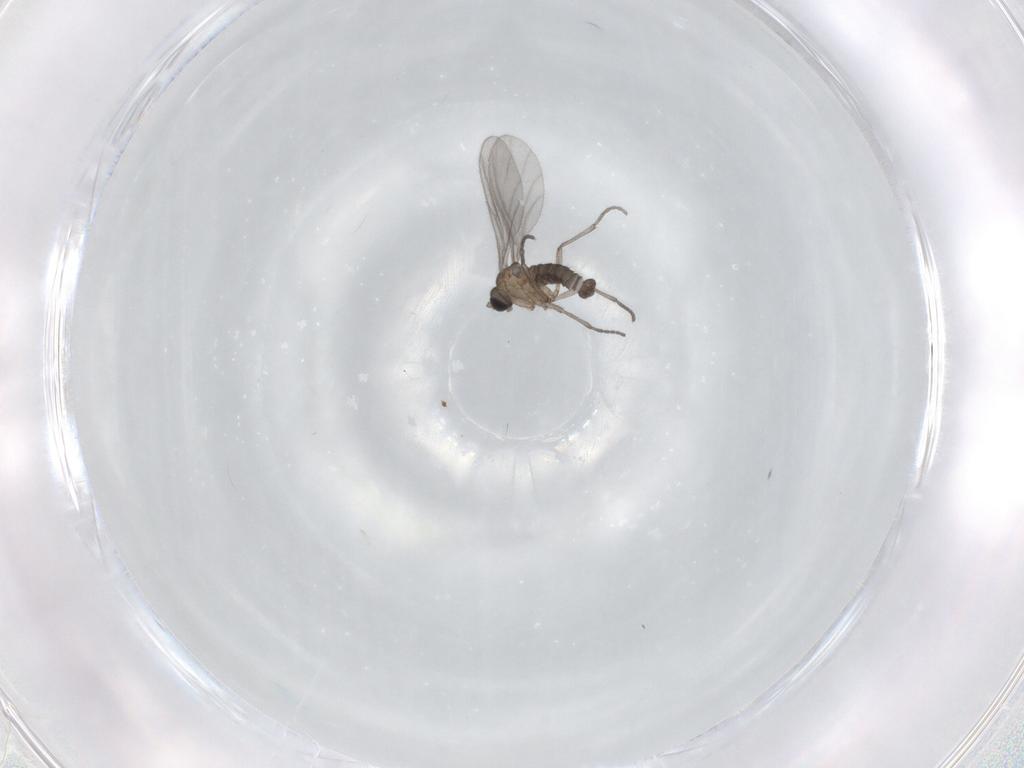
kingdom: Animalia
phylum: Arthropoda
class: Insecta
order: Diptera
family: Sciaridae
